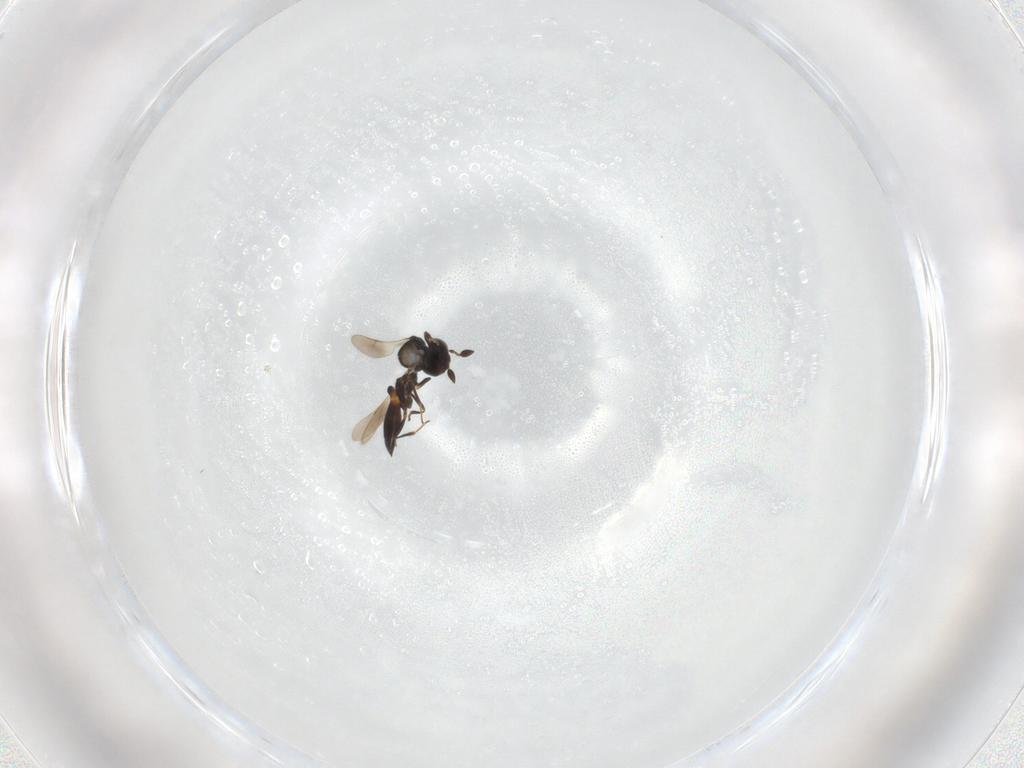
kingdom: Animalia
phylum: Arthropoda
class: Insecta
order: Hymenoptera
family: Scelionidae
